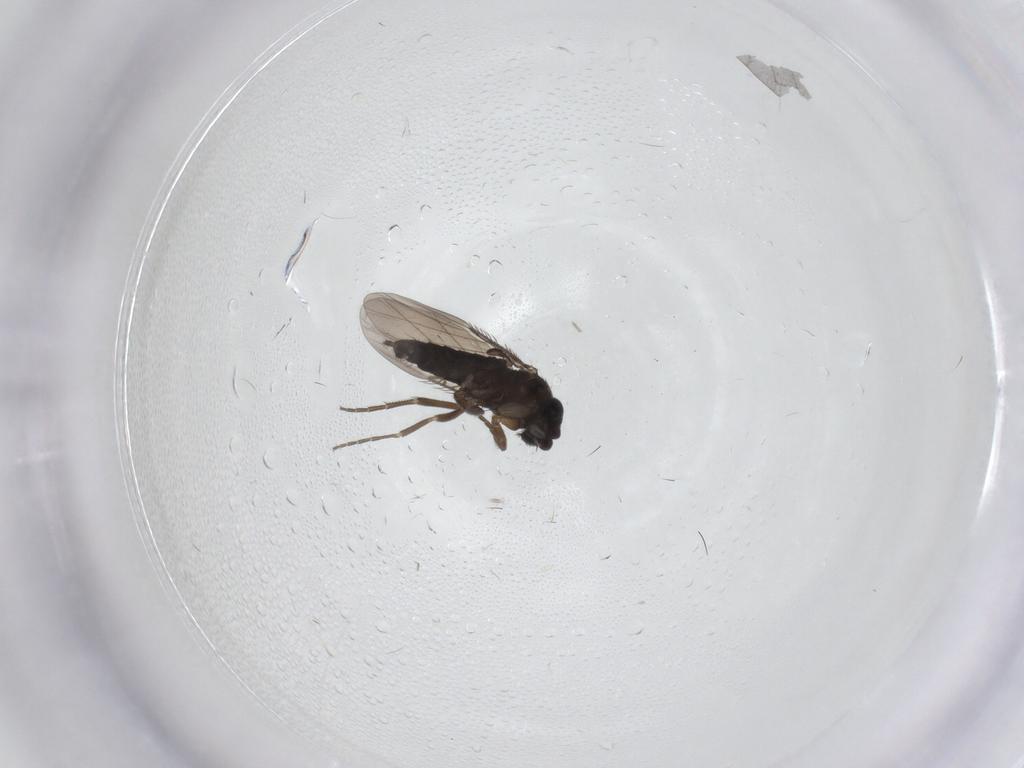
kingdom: Animalia
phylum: Arthropoda
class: Insecta
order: Diptera
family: Phoridae
